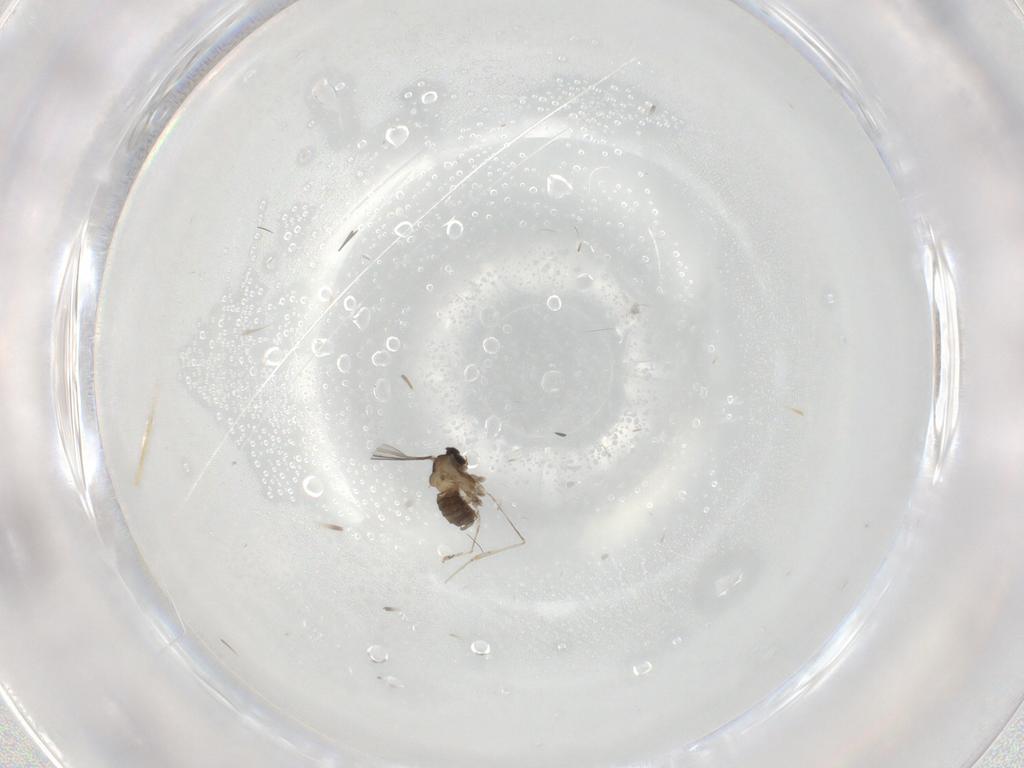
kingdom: Animalia
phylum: Arthropoda
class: Insecta
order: Diptera
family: Cecidomyiidae
